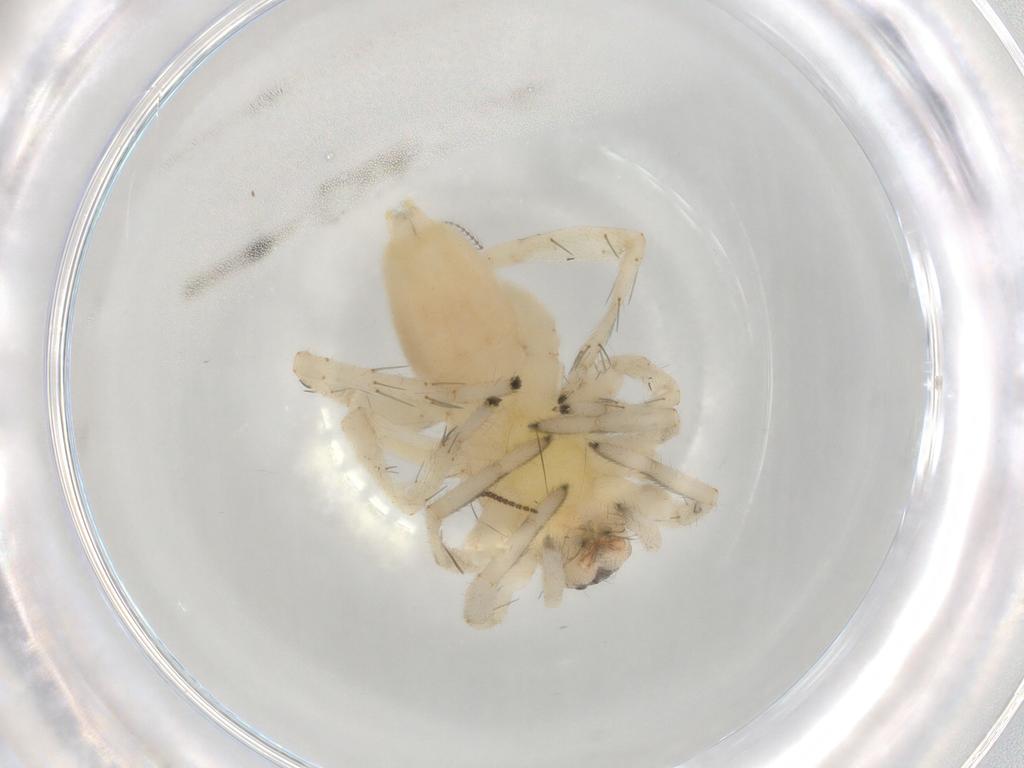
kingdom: Animalia
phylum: Arthropoda
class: Arachnida
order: Araneae
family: Clubionidae
